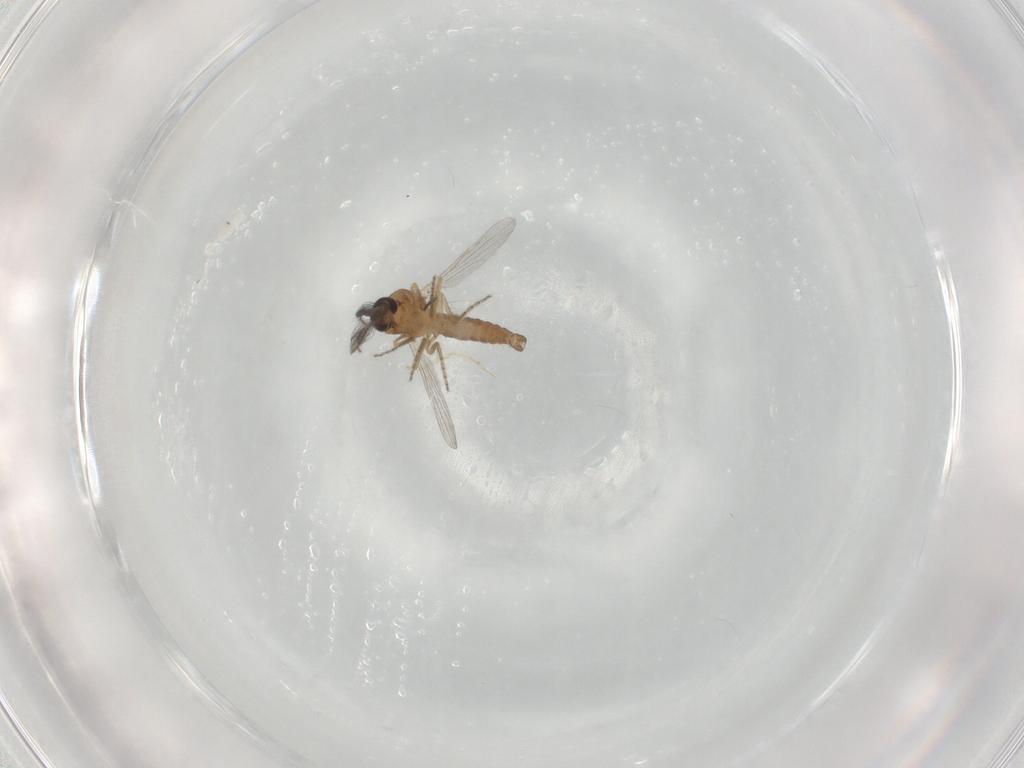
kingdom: Animalia
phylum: Arthropoda
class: Insecta
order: Diptera
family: Ceratopogonidae
